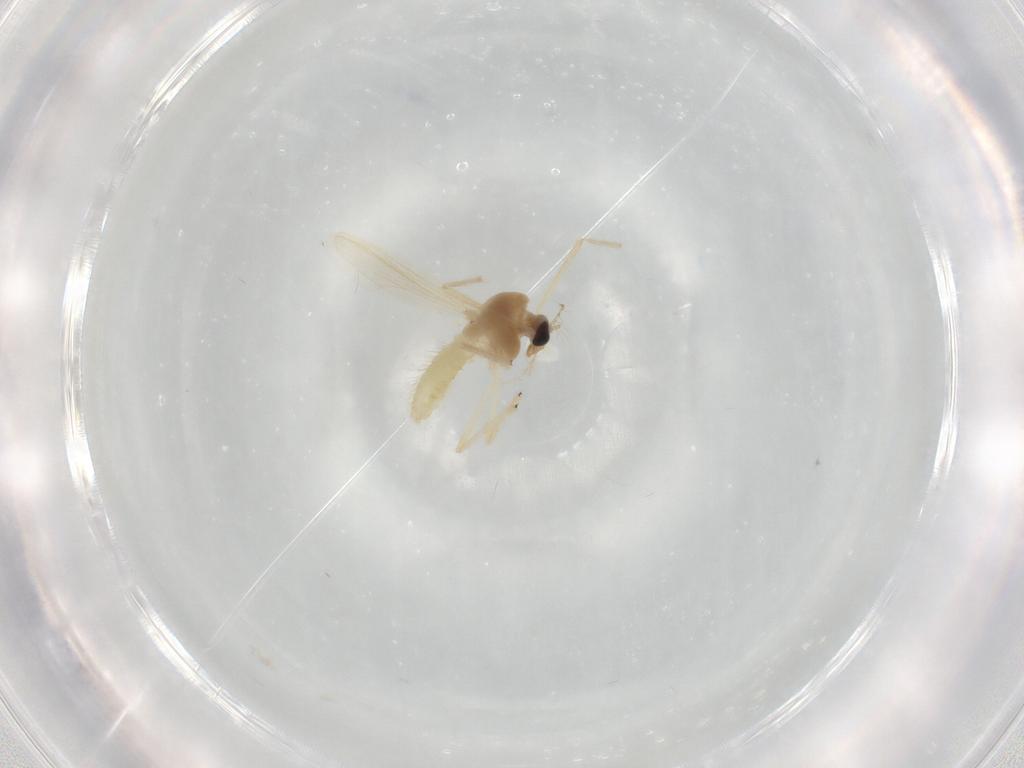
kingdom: Animalia
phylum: Arthropoda
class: Insecta
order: Diptera
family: Chironomidae
